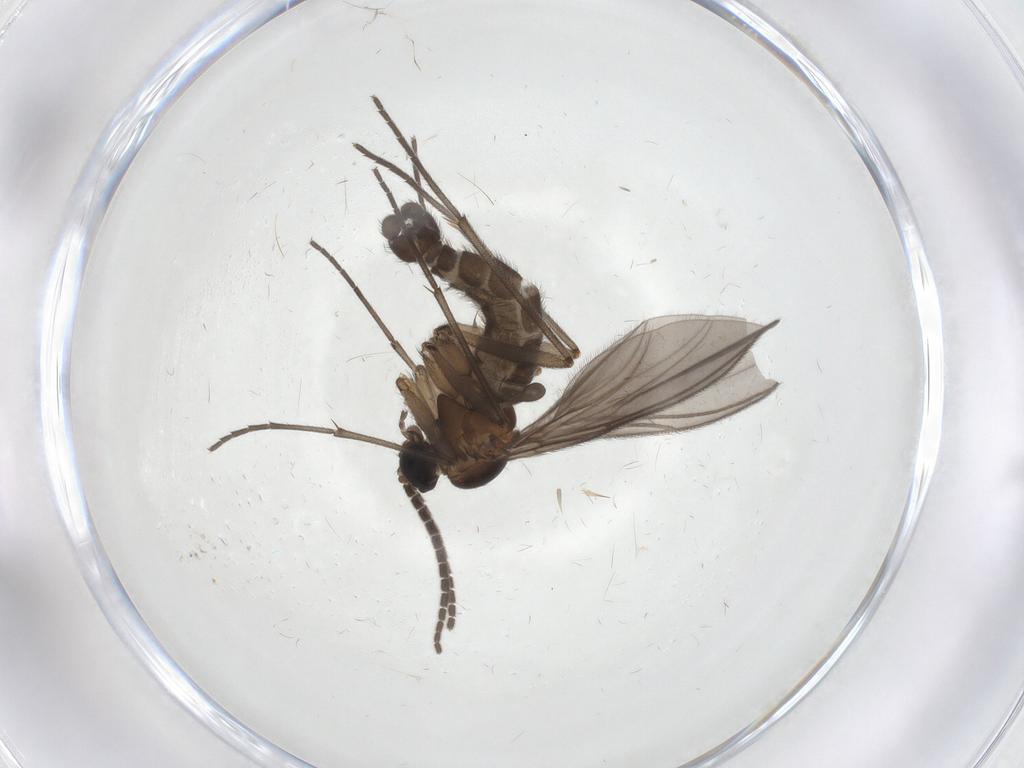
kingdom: Animalia
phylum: Arthropoda
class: Insecta
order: Diptera
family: Sciaridae
